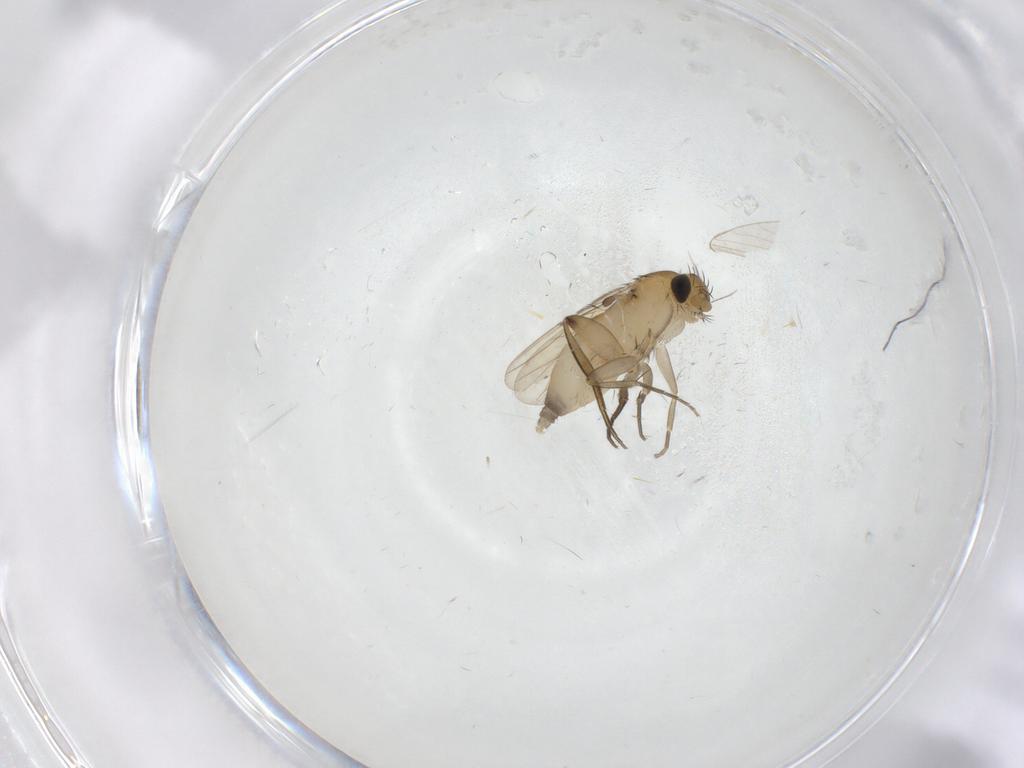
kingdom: Animalia
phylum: Arthropoda
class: Insecta
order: Diptera
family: Phoridae
